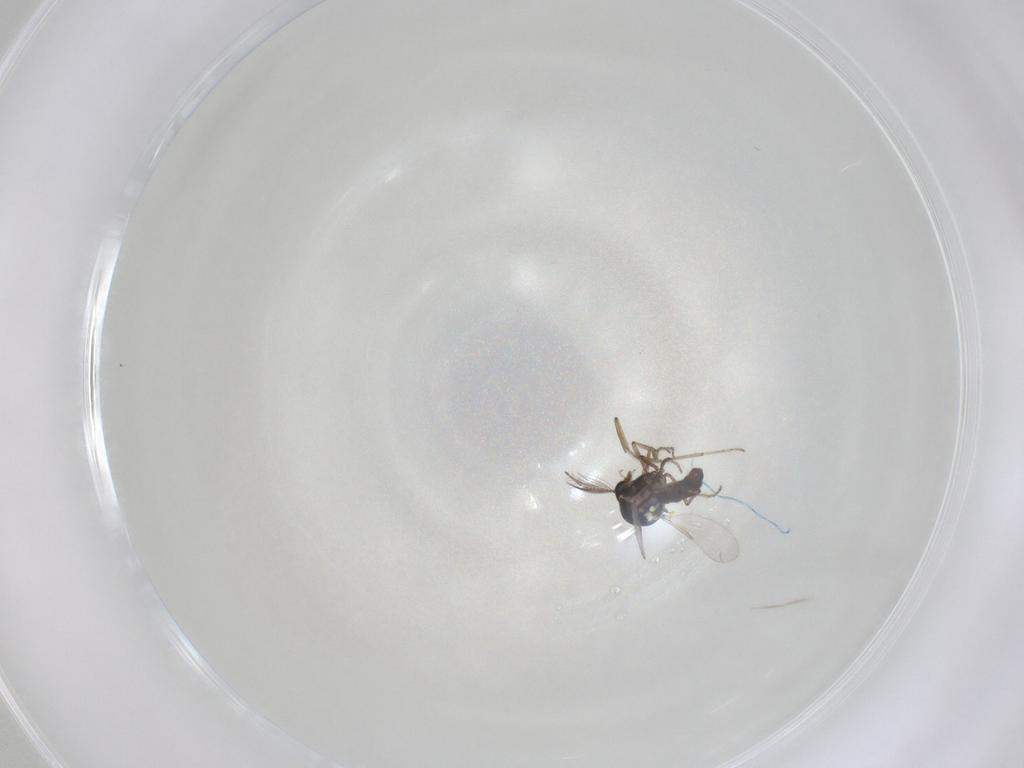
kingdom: Animalia
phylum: Arthropoda
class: Insecta
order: Diptera
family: Ceratopogonidae
